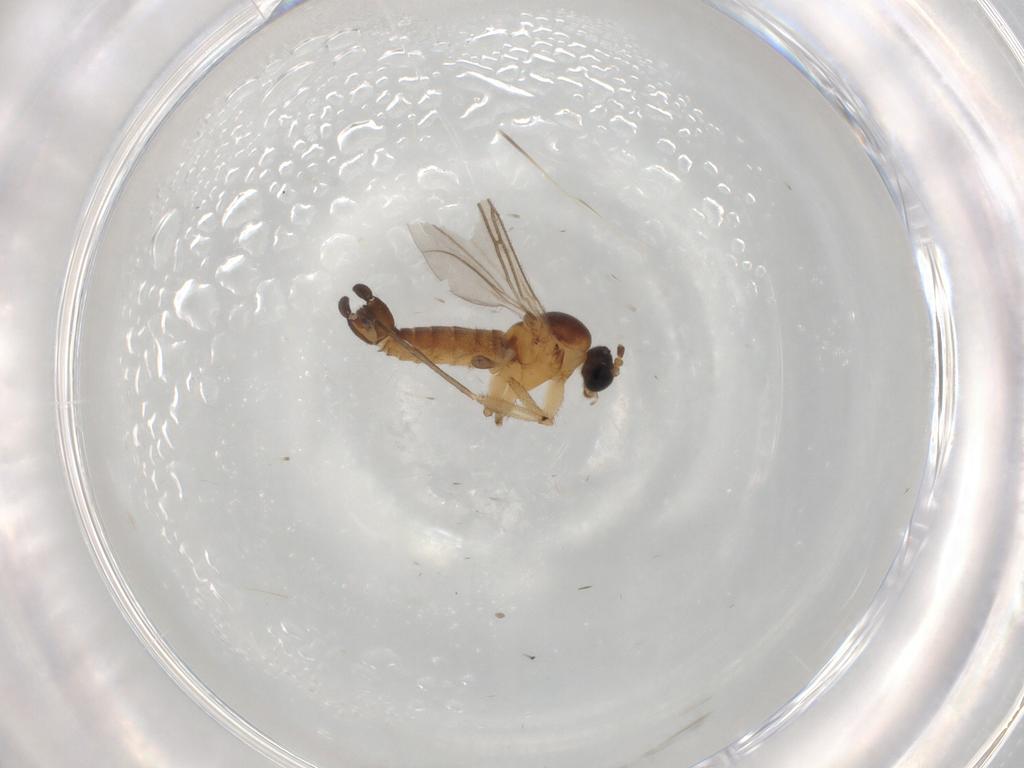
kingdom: Animalia
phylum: Arthropoda
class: Insecta
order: Diptera
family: Sciaridae
